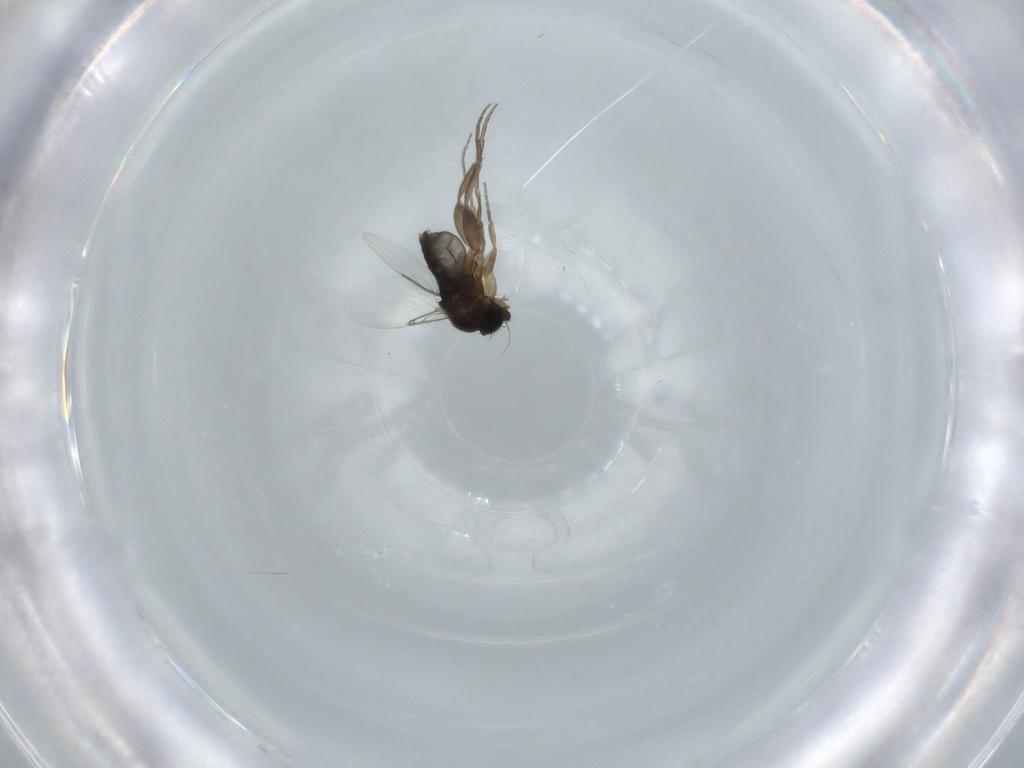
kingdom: Animalia
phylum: Arthropoda
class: Insecta
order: Diptera
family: Phoridae
